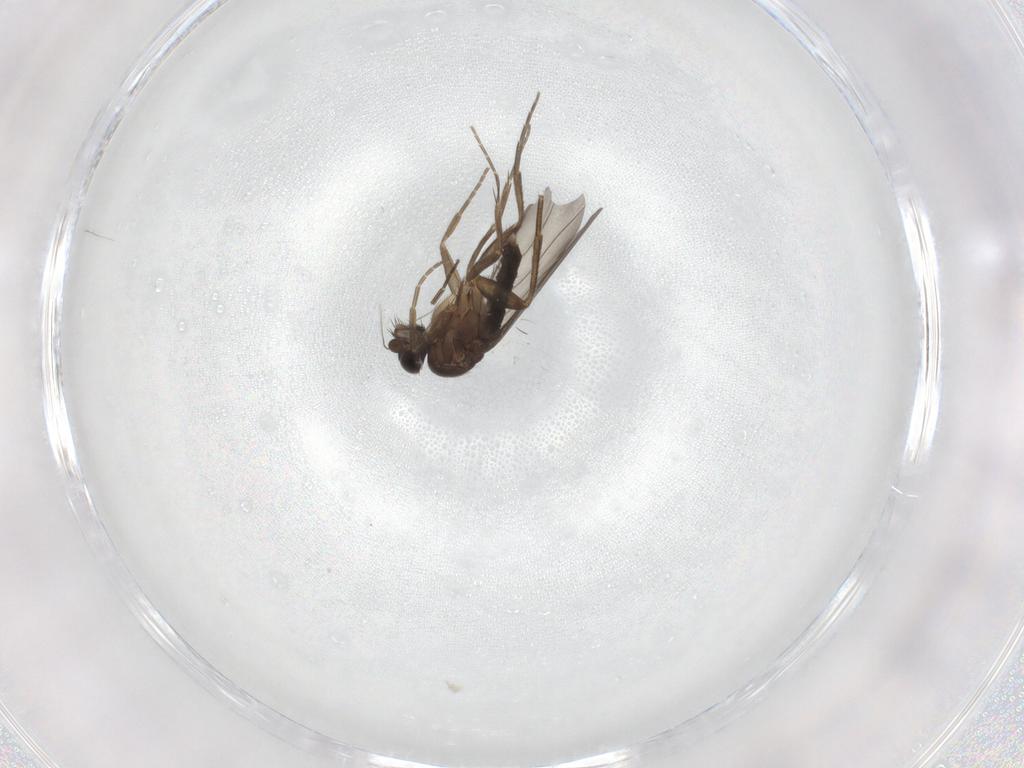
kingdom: Animalia
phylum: Arthropoda
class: Insecta
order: Diptera
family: Phoridae
